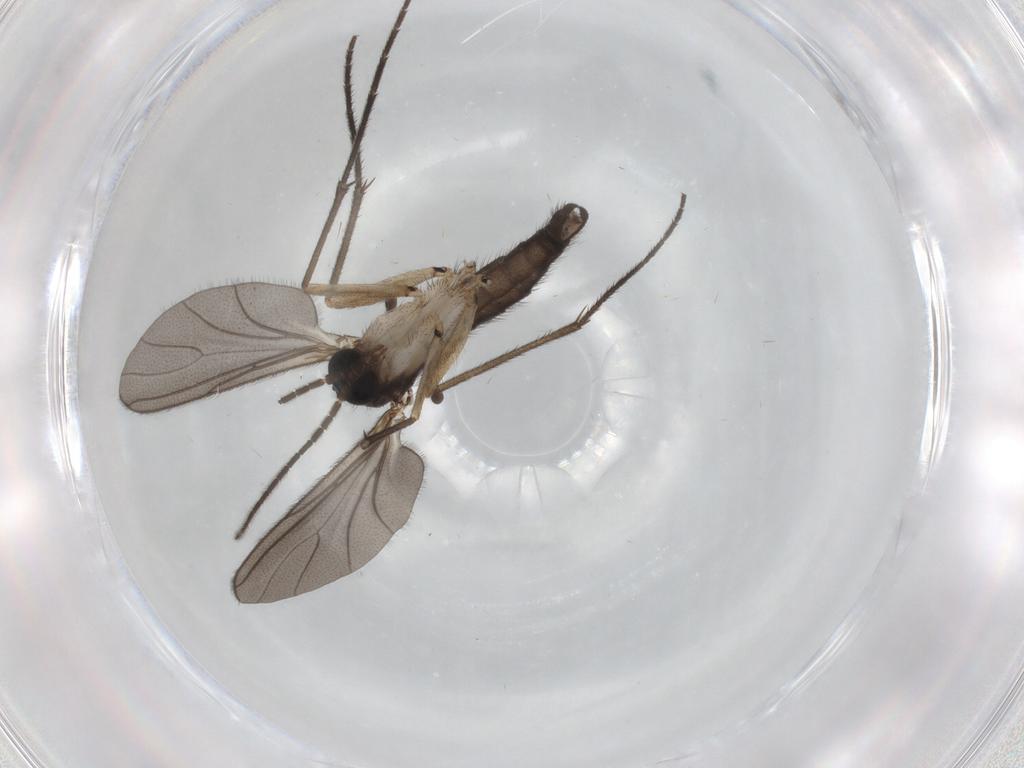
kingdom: Animalia
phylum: Arthropoda
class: Insecta
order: Diptera
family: Sciaridae
